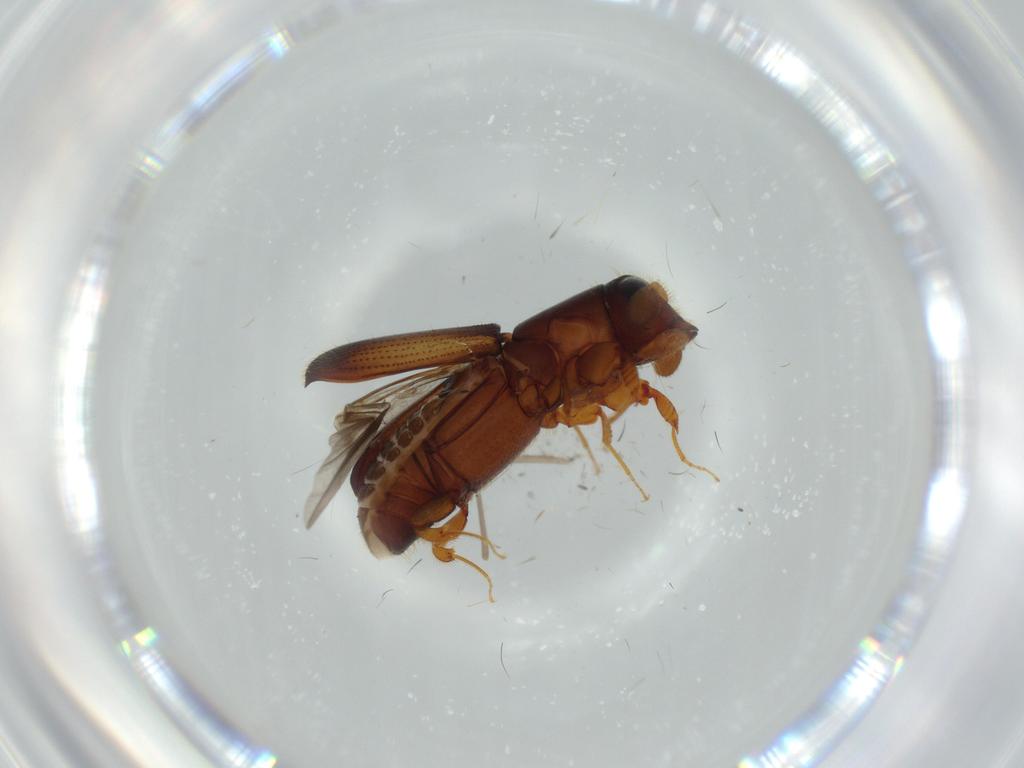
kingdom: Animalia
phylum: Arthropoda
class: Insecta
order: Coleoptera
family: Curculionidae
